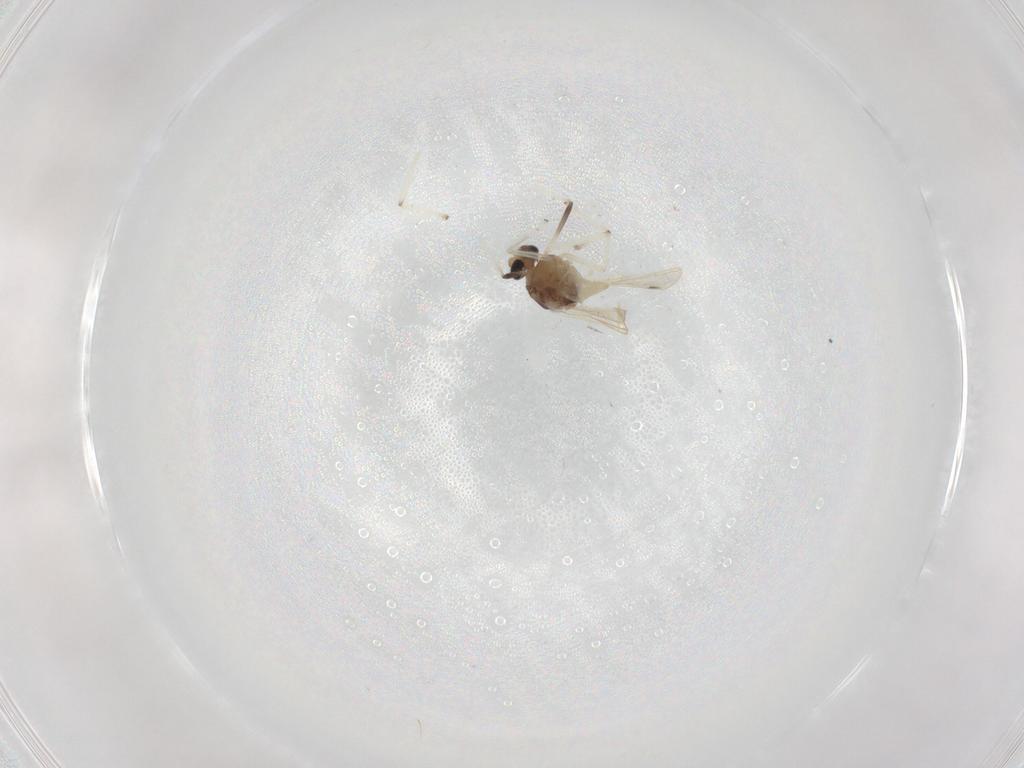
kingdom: Animalia
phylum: Arthropoda
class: Insecta
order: Diptera
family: Chironomidae
